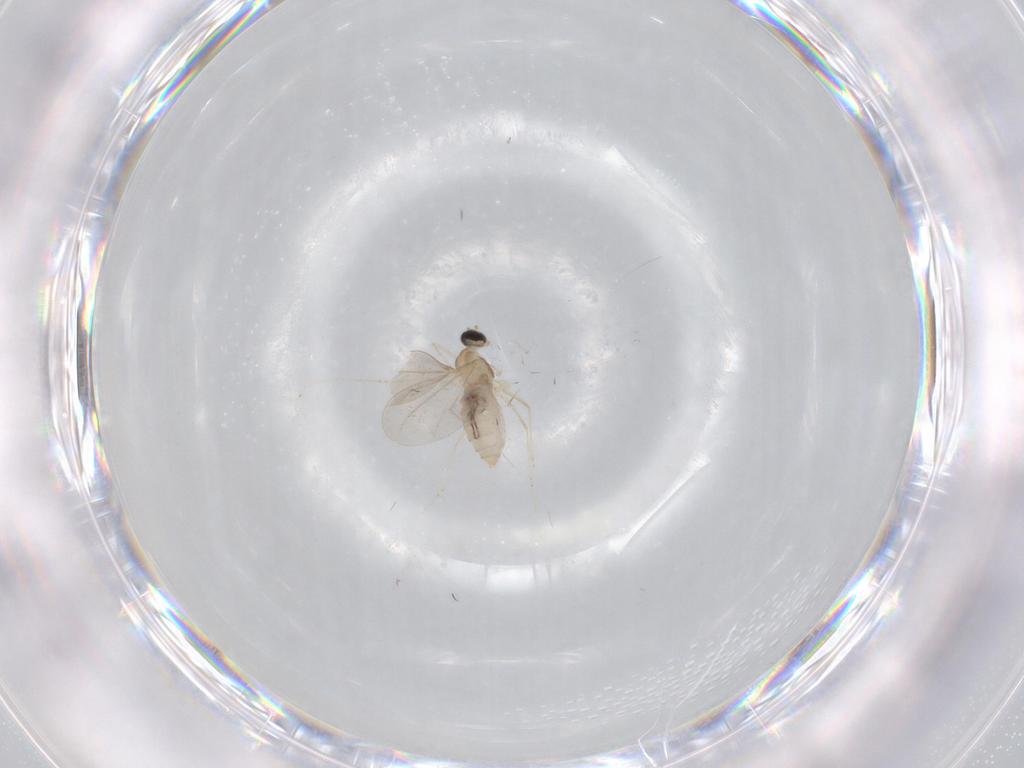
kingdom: Animalia
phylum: Arthropoda
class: Insecta
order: Diptera
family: Cecidomyiidae
